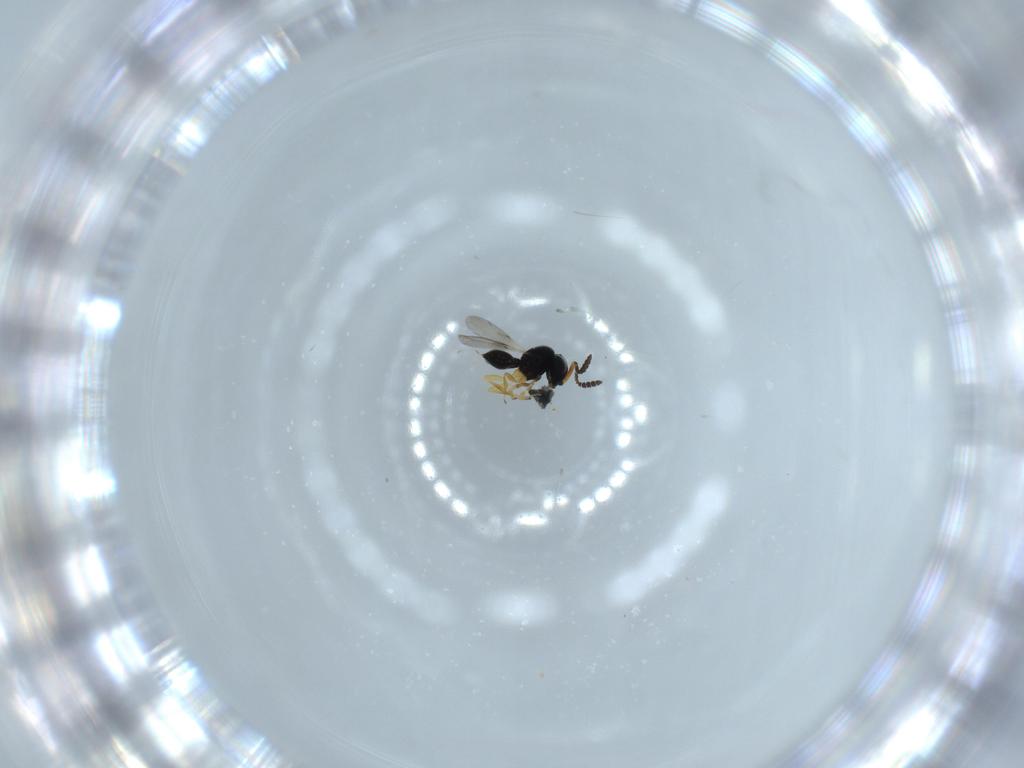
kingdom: Animalia
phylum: Arthropoda
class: Insecta
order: Hymenoptera
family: Scelionidae
